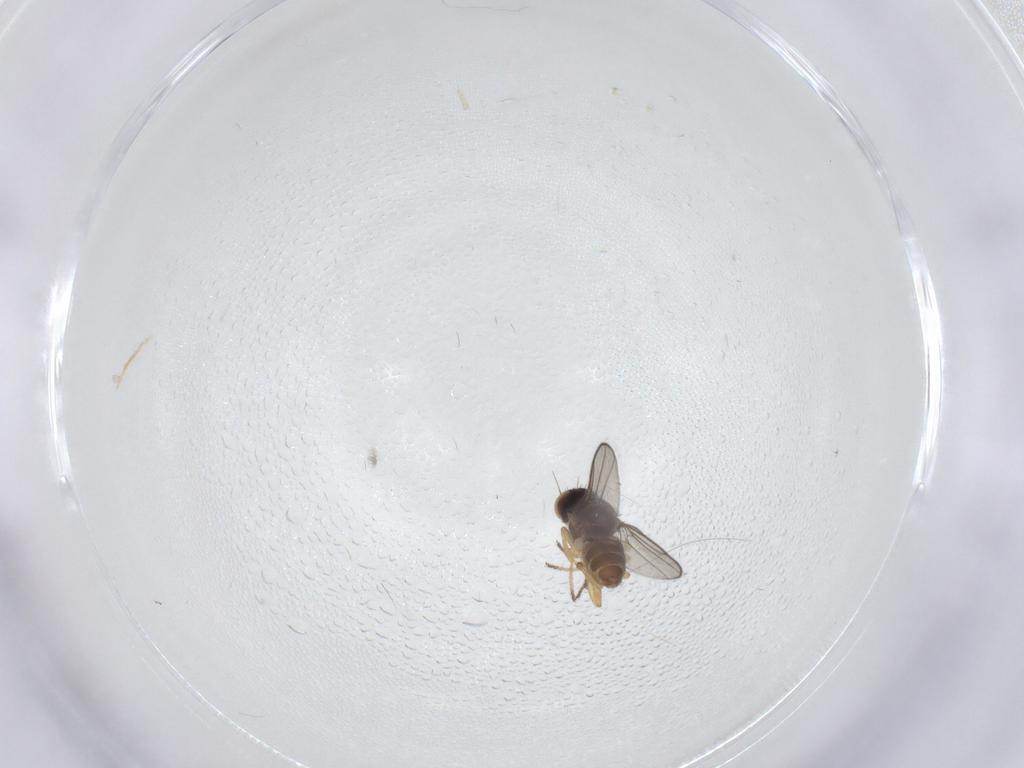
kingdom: Animalia
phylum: Arthropoda
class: Insecta
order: Diptera
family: Chloropidae
